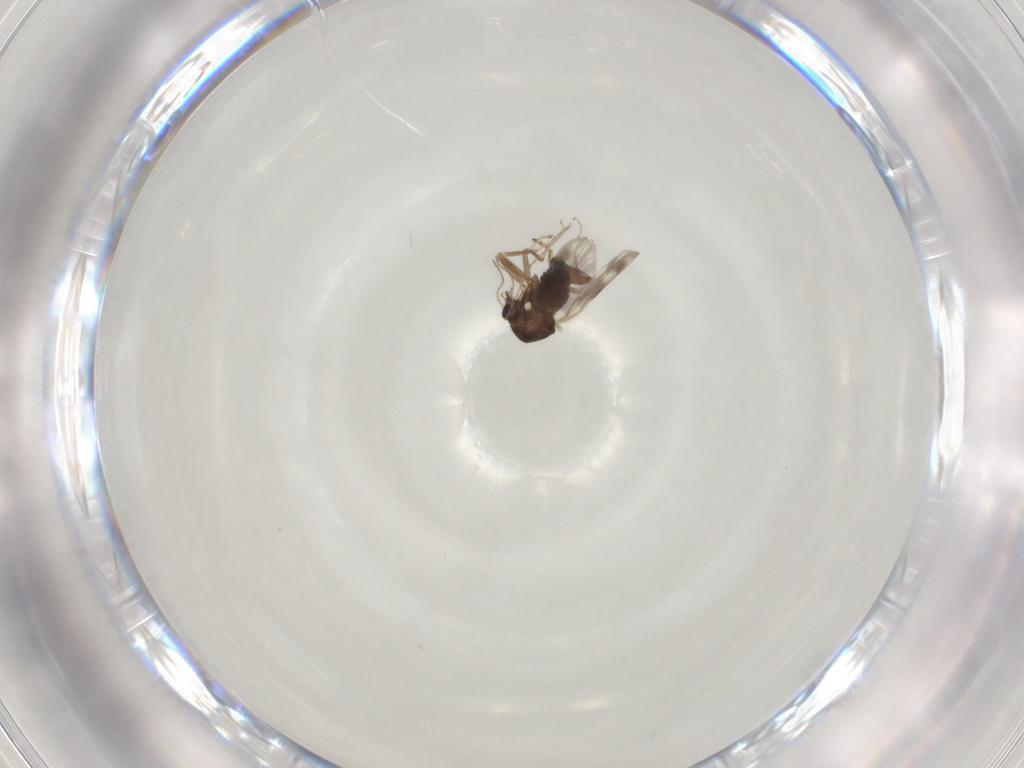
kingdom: Animalia
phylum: Arthropoda
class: Insecta
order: Diptera
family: Ceratopogonidae
